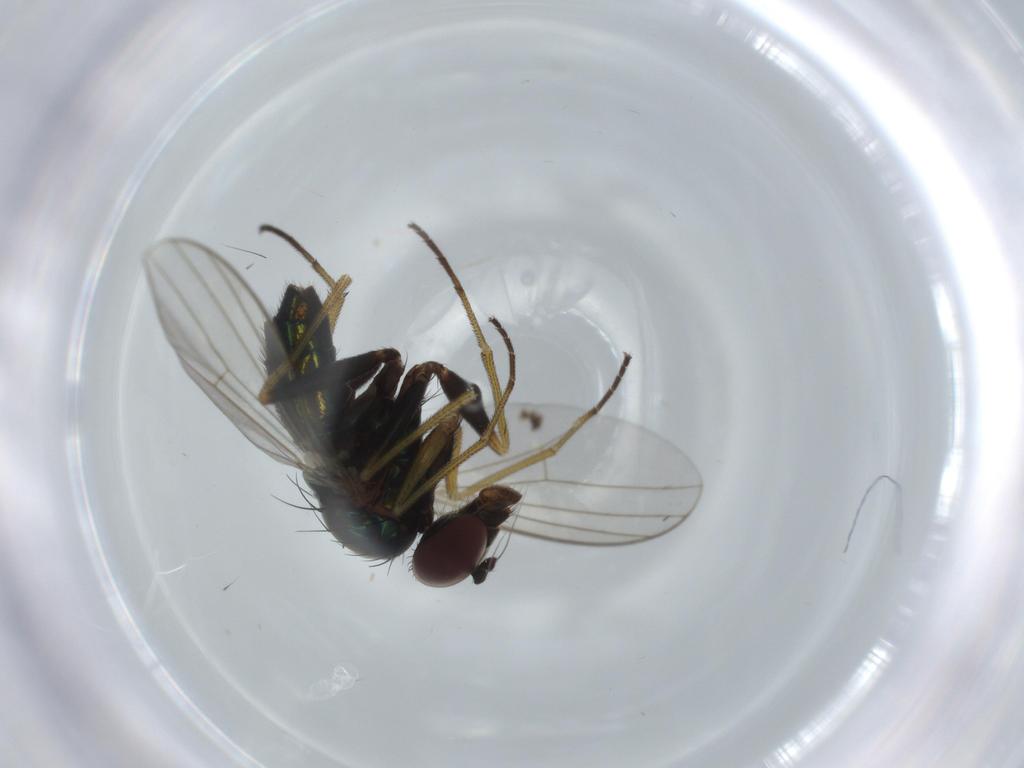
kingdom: Animalia
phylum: Arthropoda
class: Insecta
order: Diptera
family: Dolichopodidae
